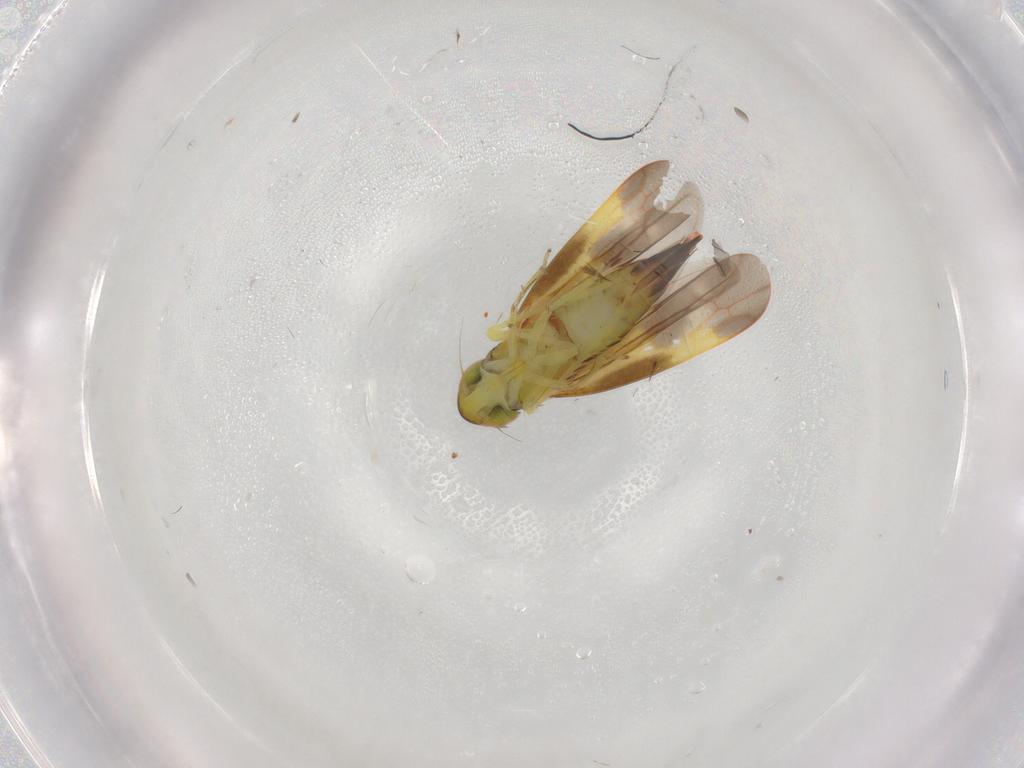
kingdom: Animalia
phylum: Arthropoda
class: Insecta
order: Hemiptera
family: Cicadellidae
